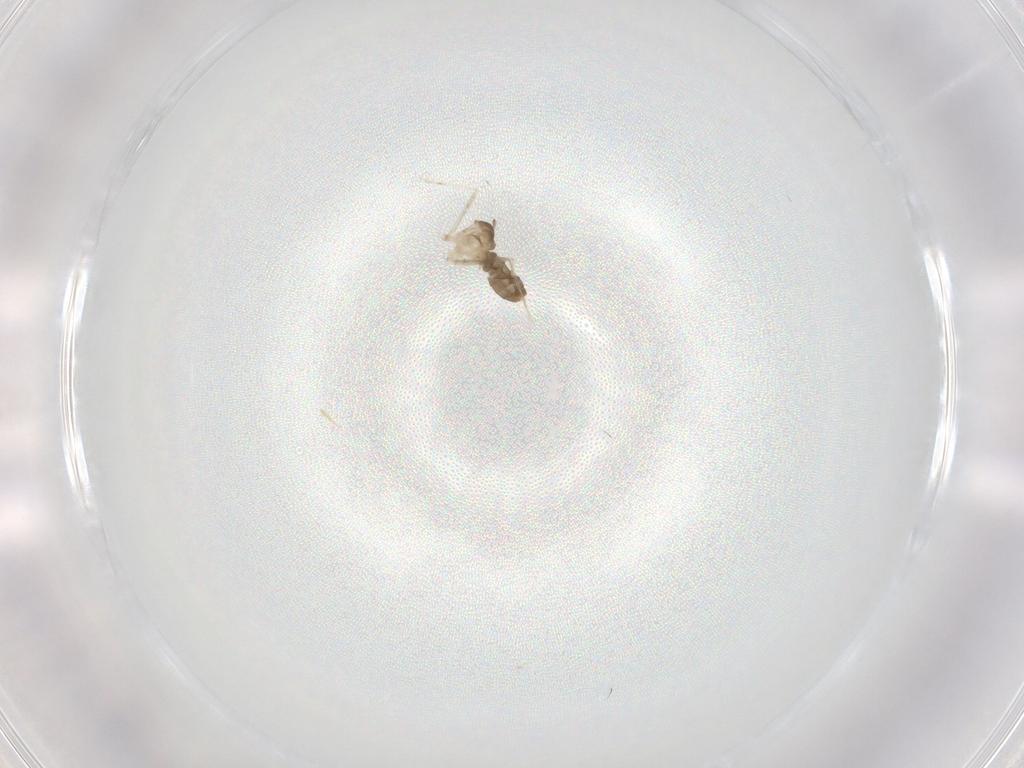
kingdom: Animalia
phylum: Arthropoda
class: Insecta
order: Diptera
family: Cecidomyiidae
